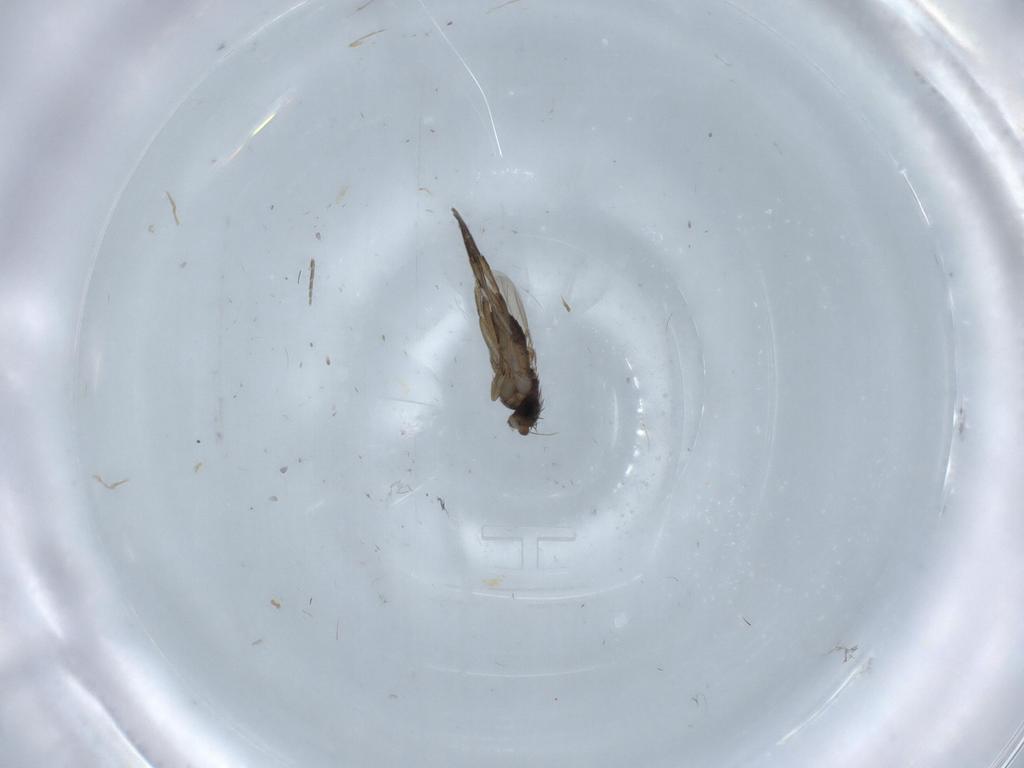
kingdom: Animalia
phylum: Arthropoda
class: Insecta
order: Diptera
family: Phoridae
